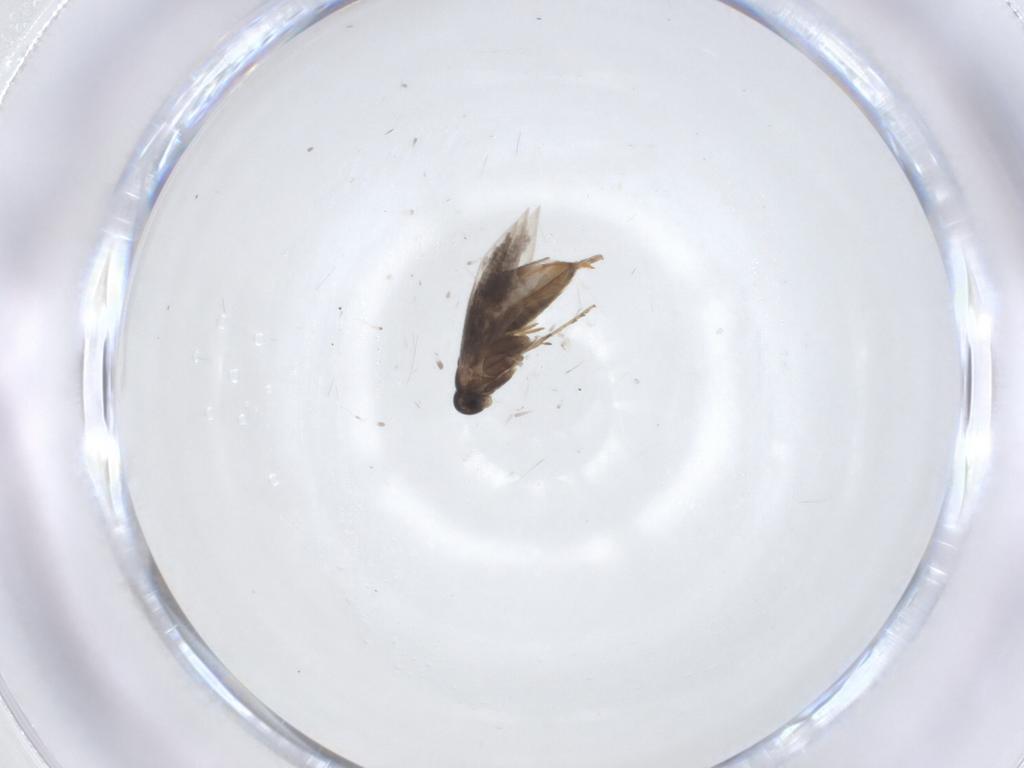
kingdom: Animalia
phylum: Arthropoda
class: Insecta
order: Lepidoptera
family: Heliozelidae
